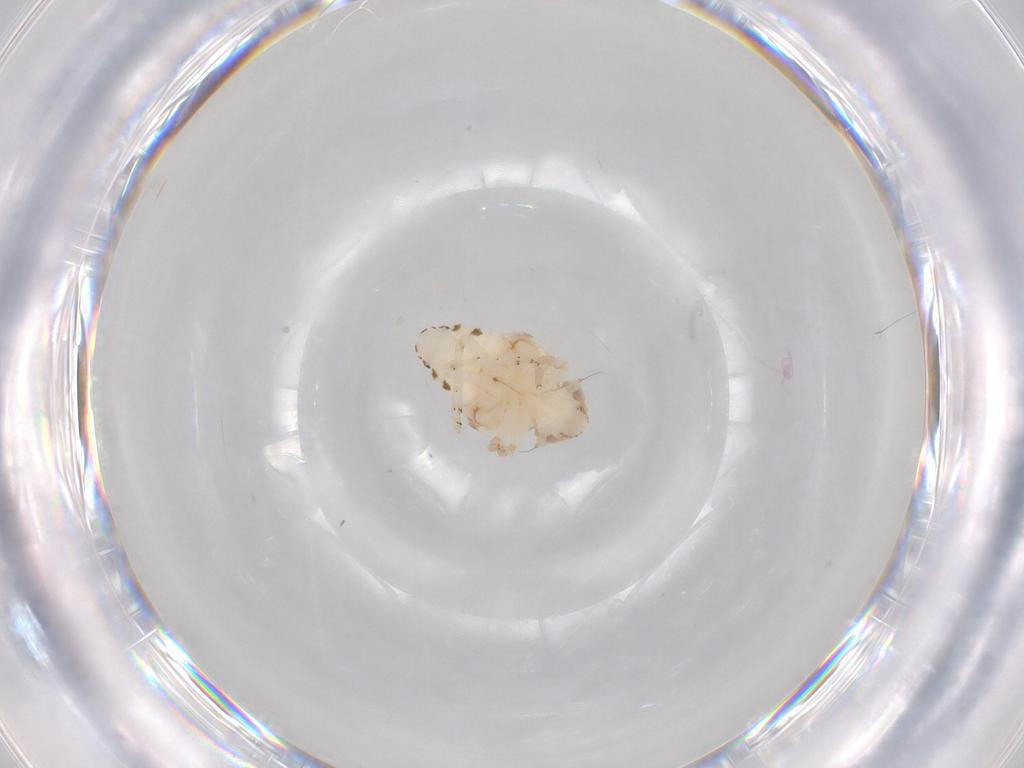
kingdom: Animalia
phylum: Arthropoda
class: Insecta
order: Hemiptera
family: Nogodinidae
